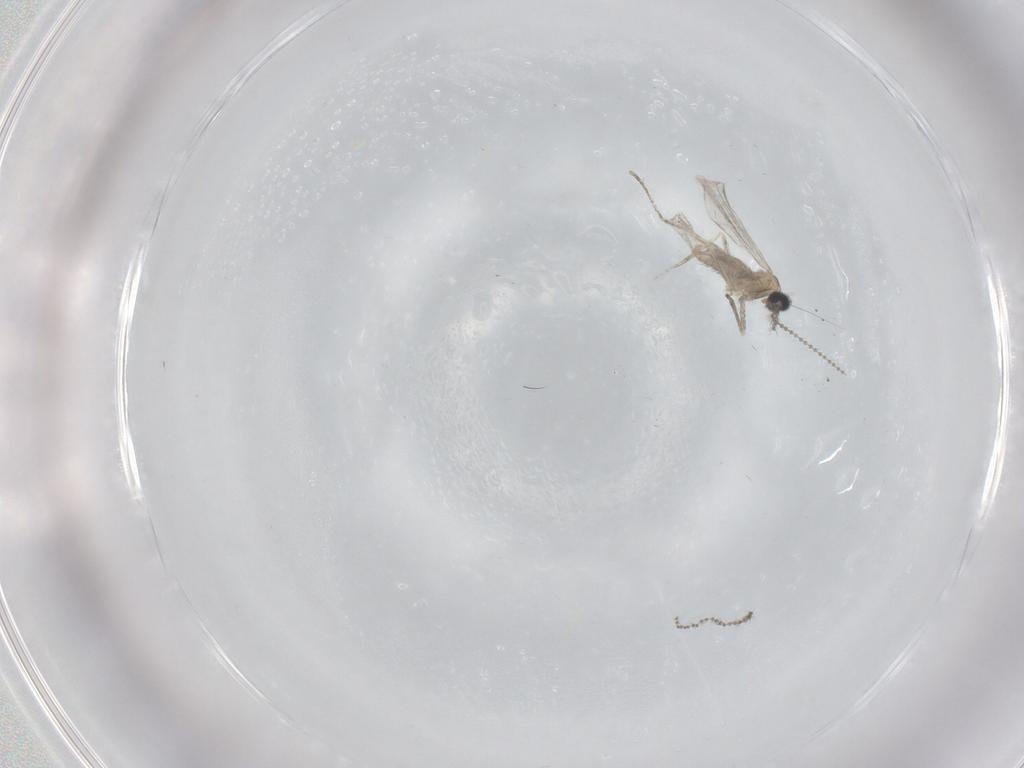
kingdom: Animalia
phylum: Arthropoda
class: Insecta
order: Diptera
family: Cecidomyiidae
